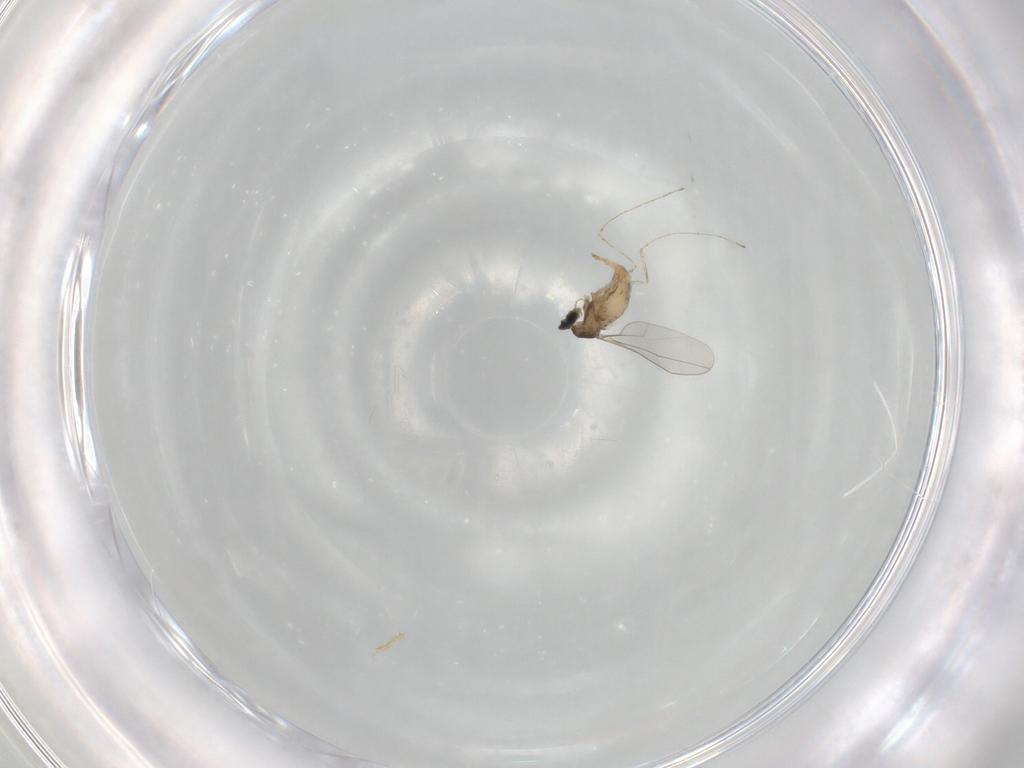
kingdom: Animalia
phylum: Arthropoda
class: Insecta
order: Diptera
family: Cecidomyiidae
